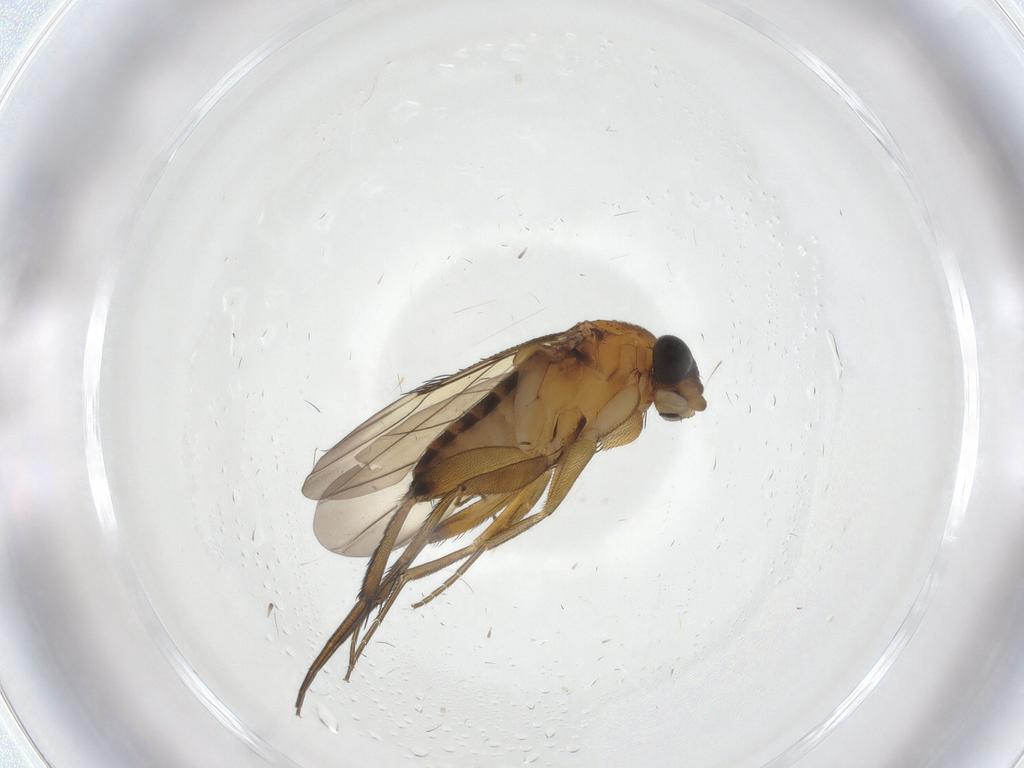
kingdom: Animalia
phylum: Arthropoda
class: Insecta
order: Diptera
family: Phoridae
